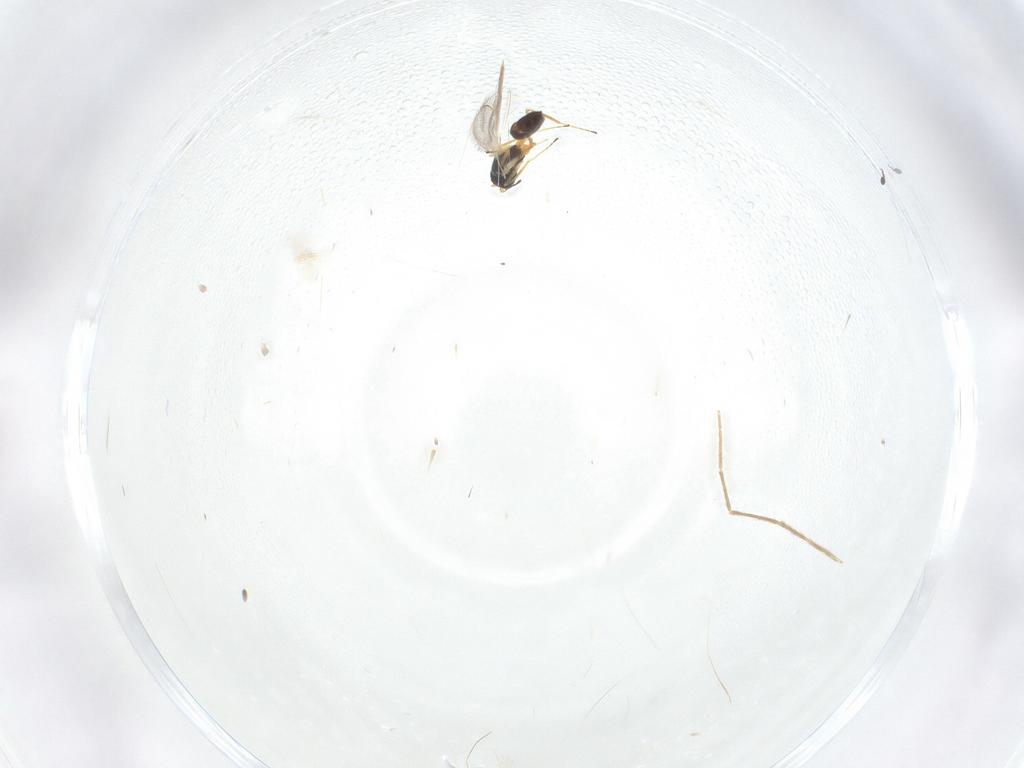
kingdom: Animalia
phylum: Arthropoda
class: Insecta
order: Hymenoptera
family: Mymaridae
